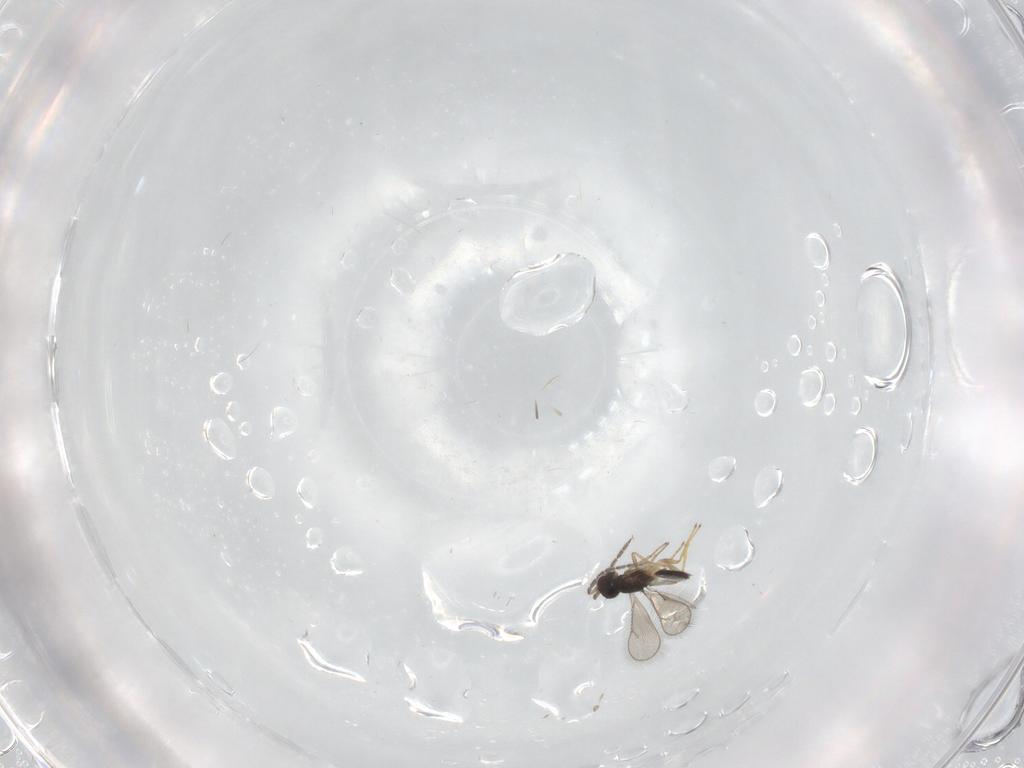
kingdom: Animalia
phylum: Arthropoda
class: Insecta
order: Hymenoptera
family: Eulophidae
